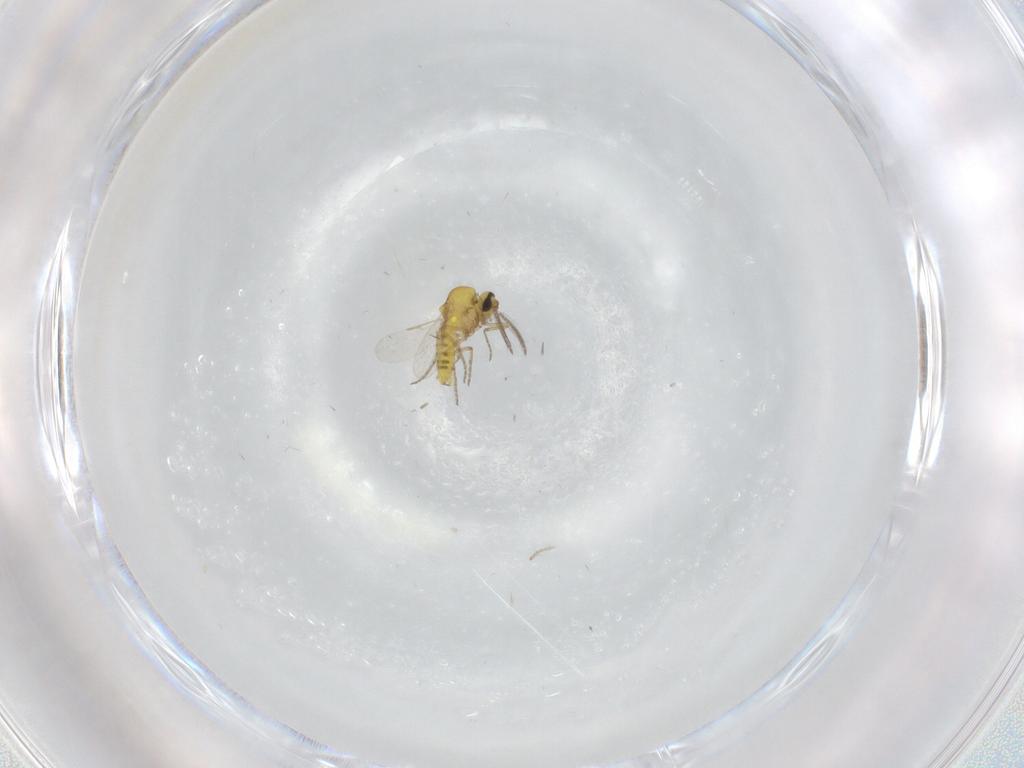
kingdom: Animalia
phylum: Arthropoda
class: Insecta
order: Diptera
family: Ceratopogonidae
